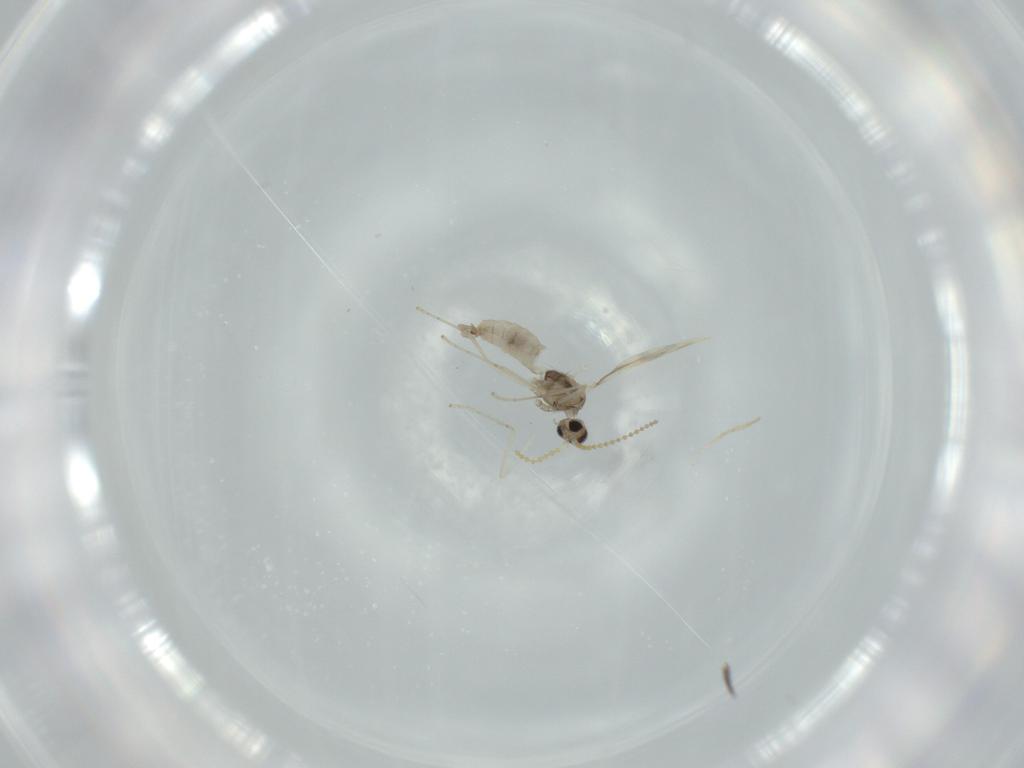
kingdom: Animalia
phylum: Arthropoda
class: Insecta
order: Diptera
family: Cecidomyiidae
